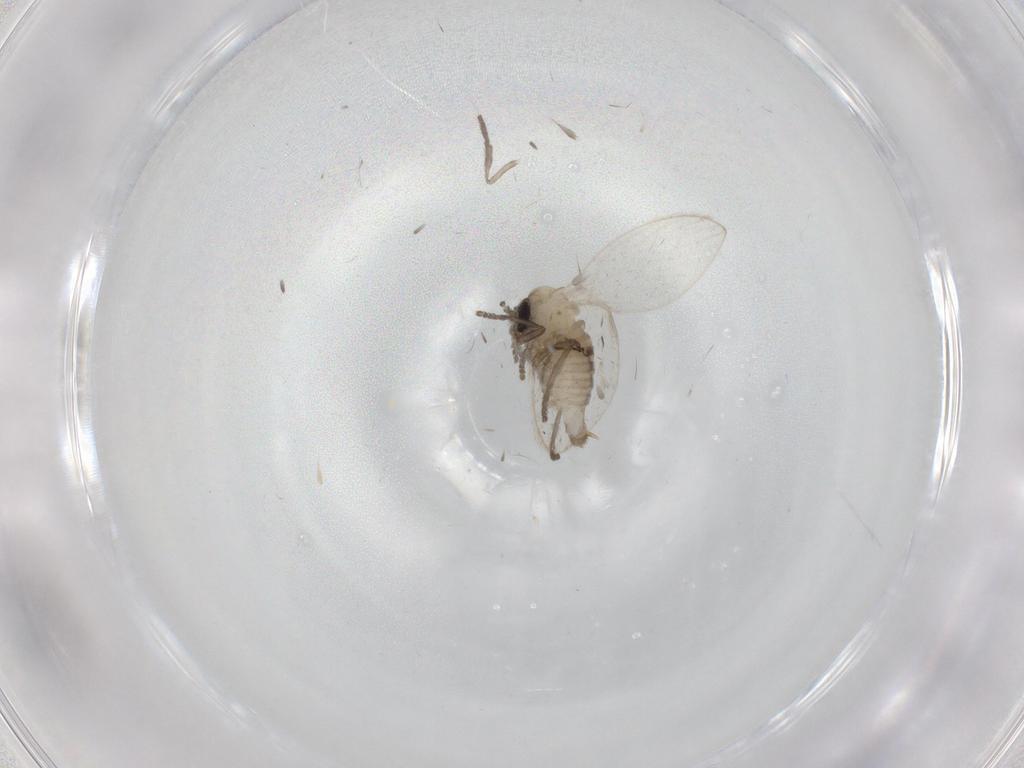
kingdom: Animalia
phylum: Arthropoda
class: Insecta
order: Diptera
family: Psychodidae
